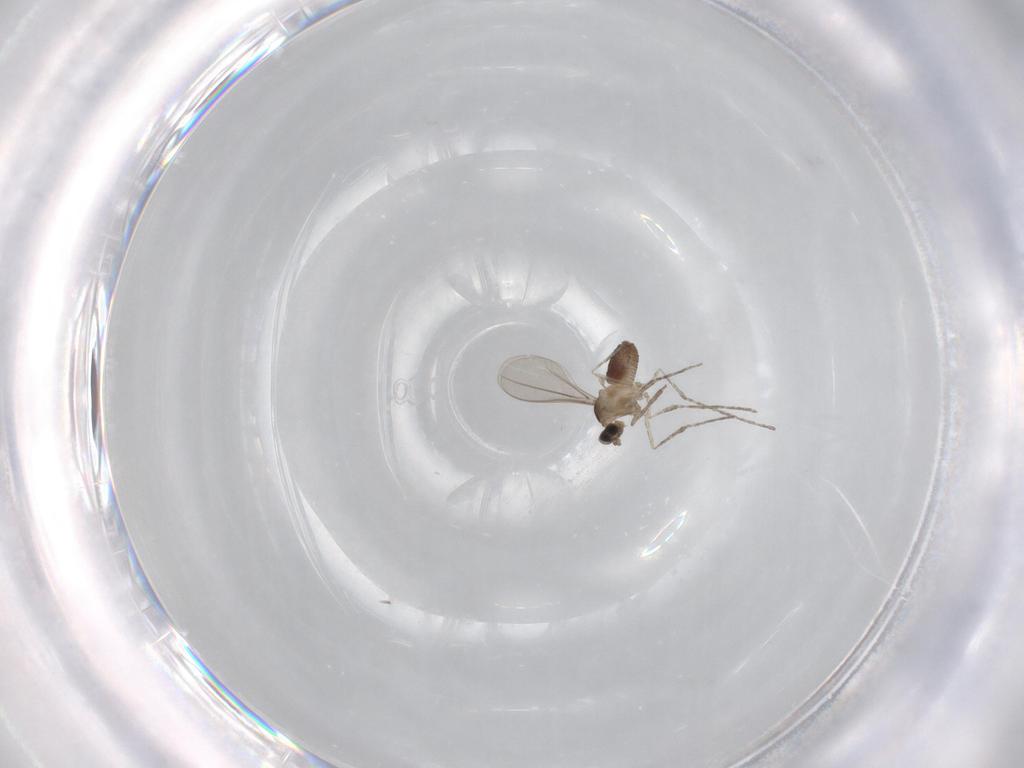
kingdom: Animalia
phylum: Arthropoda
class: Insecta
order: Diptera
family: Cecidomyiidae
